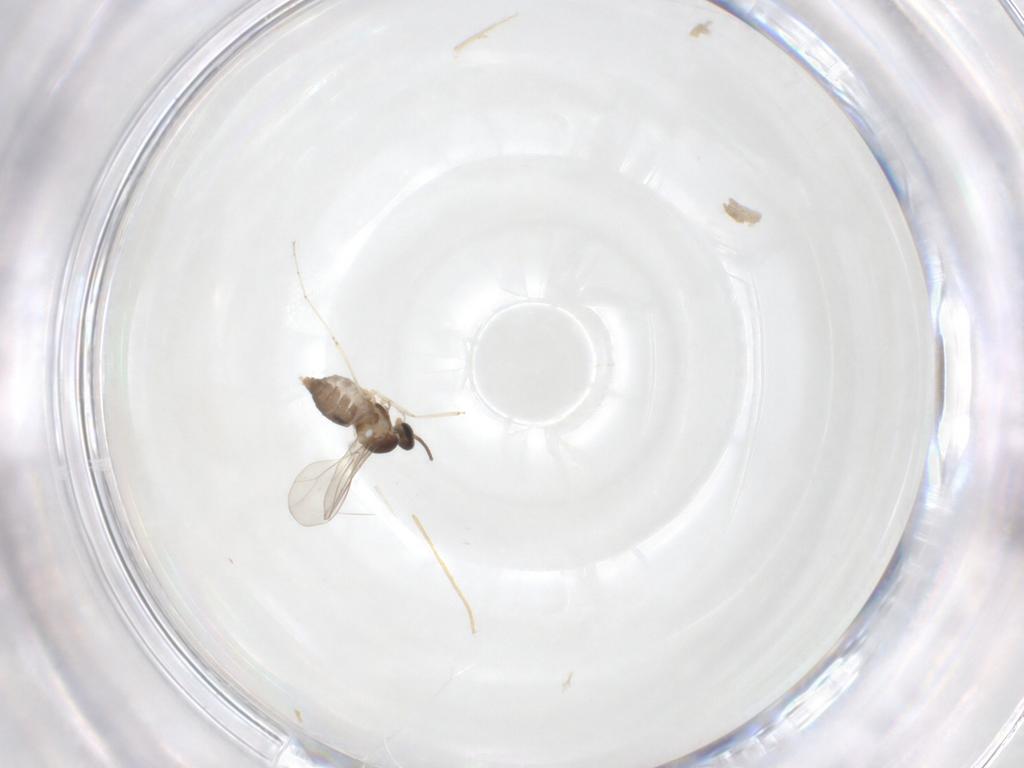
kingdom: Animalia
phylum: Arthropoda
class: Insecta
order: Diptera
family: Cecidomyiidae
